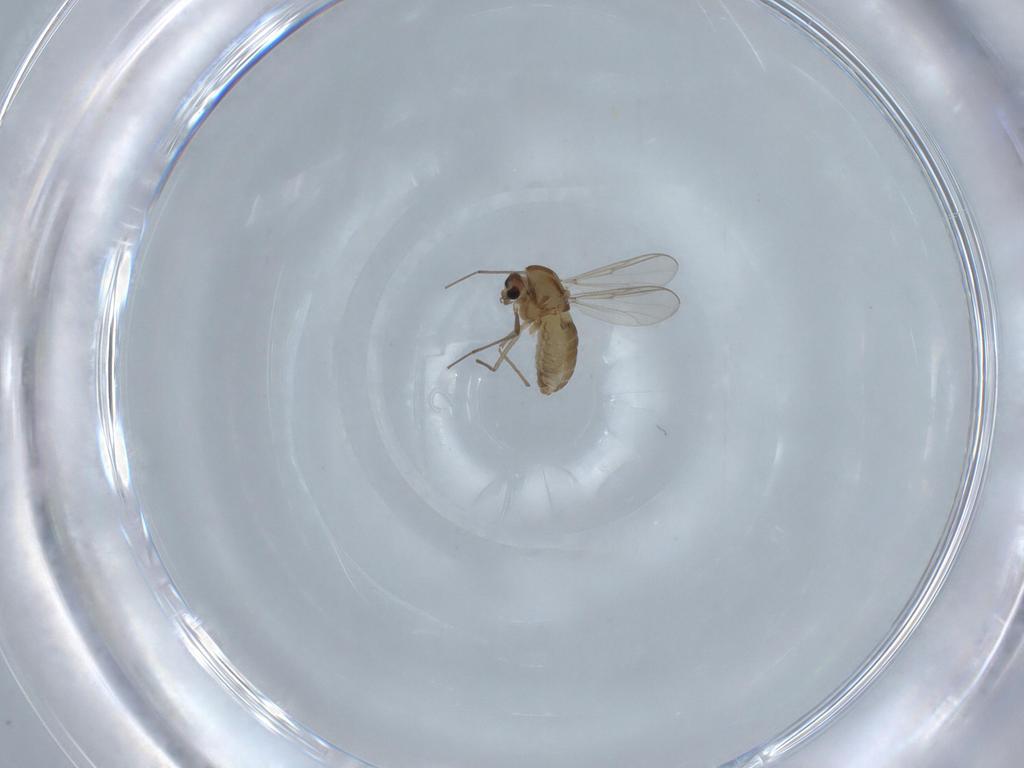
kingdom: Animalia
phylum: Arthropoda
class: Insecta
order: Diptera
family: Chironomidae
